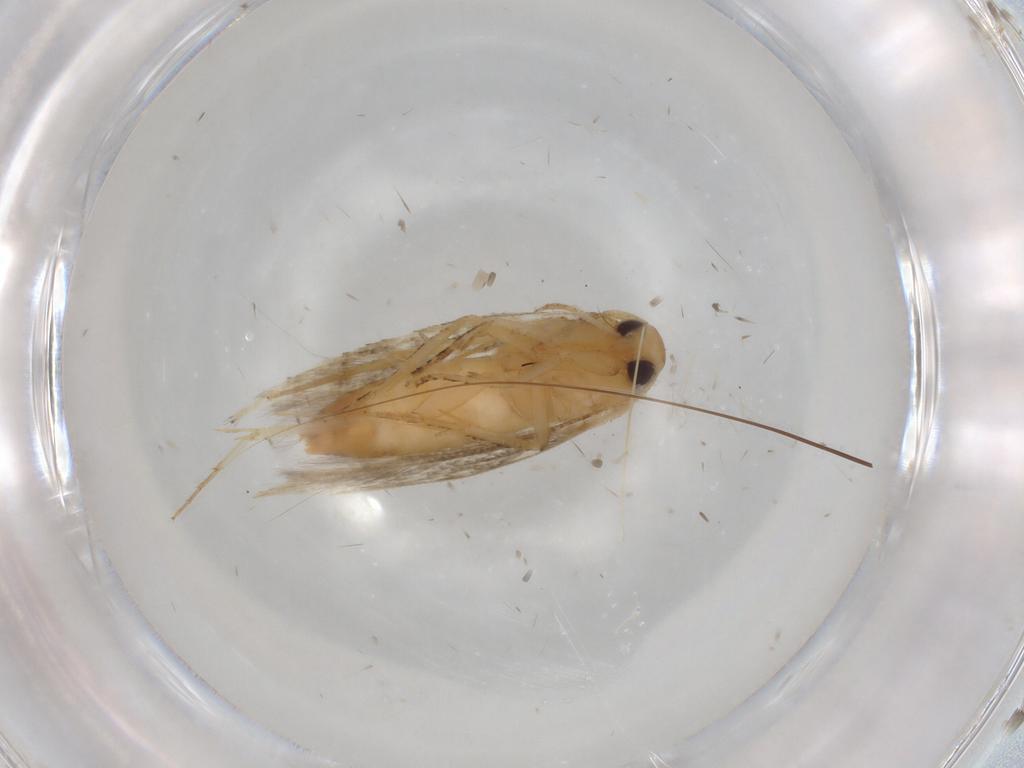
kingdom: Animalia
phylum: Arthropoda
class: Insecta
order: Lepidoptera
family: Cosmopterigidae
